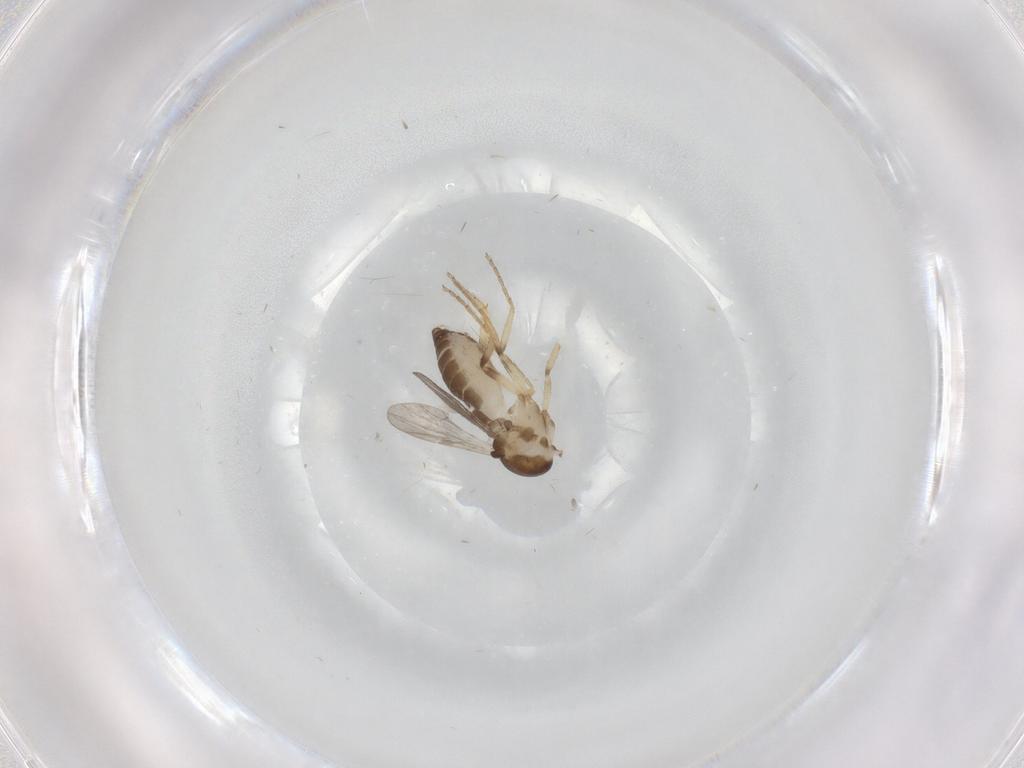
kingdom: Animalia
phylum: Arthropoda
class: Insecta
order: Diptera
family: Ceratopogonidae
